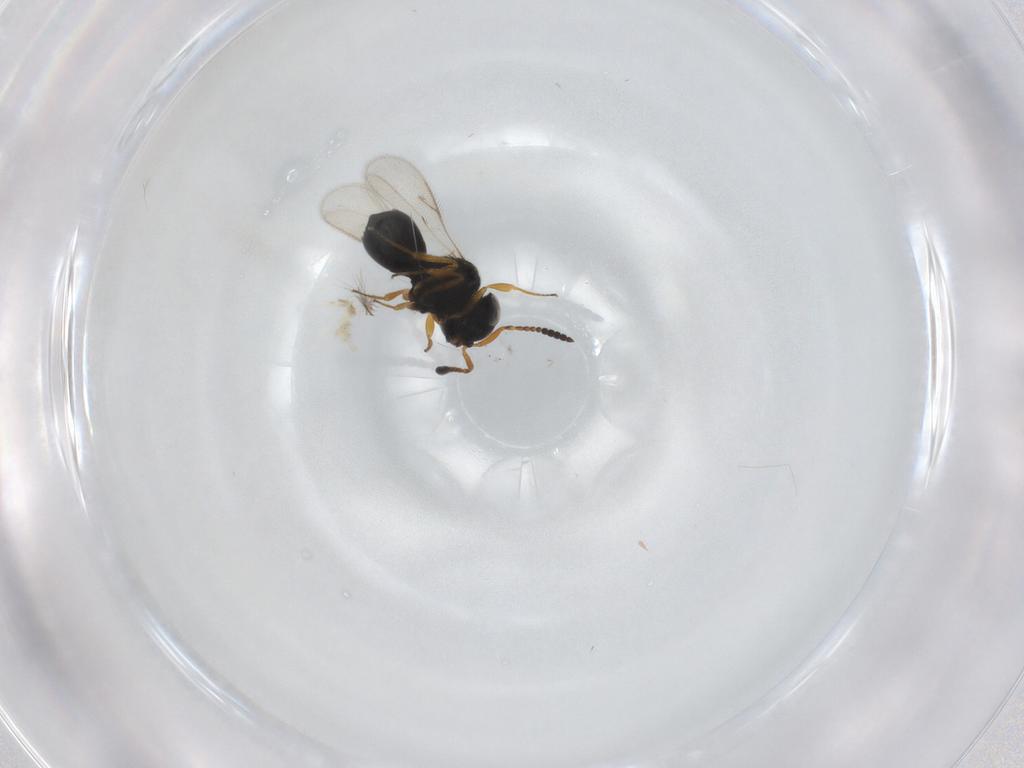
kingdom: Animalia
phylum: Arthropoda
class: Insecta
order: Hymenoptera
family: Scelionidae
